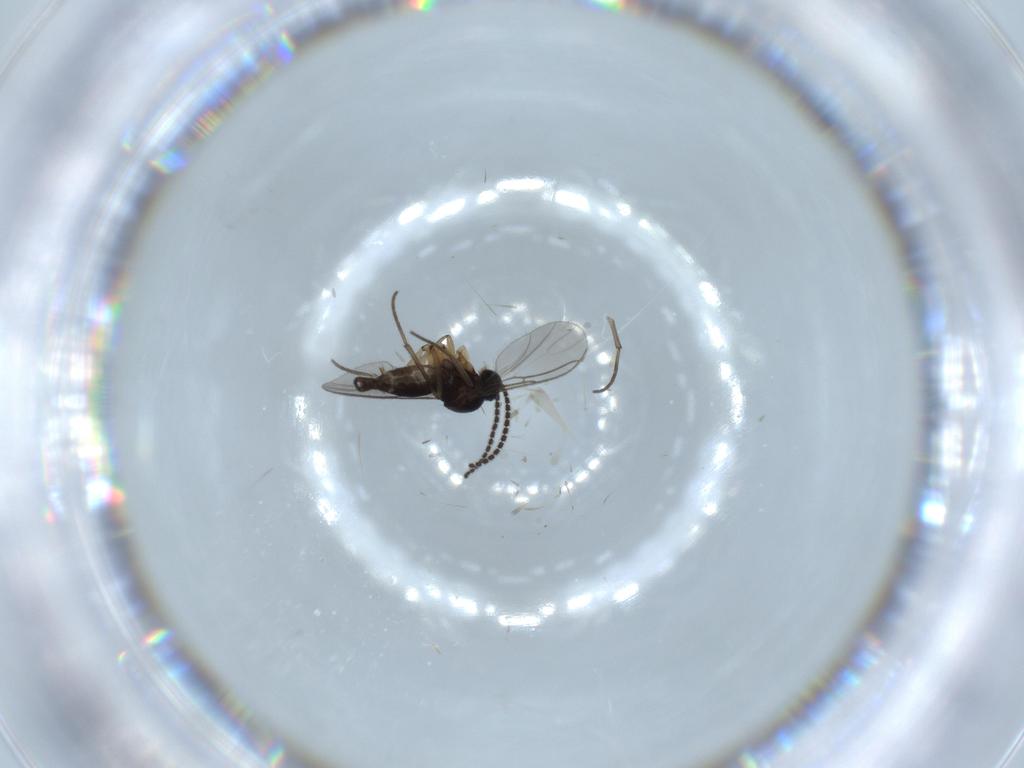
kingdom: Animalia
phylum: Arthropoda
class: Insecta
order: Diptera
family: Sciaridae
